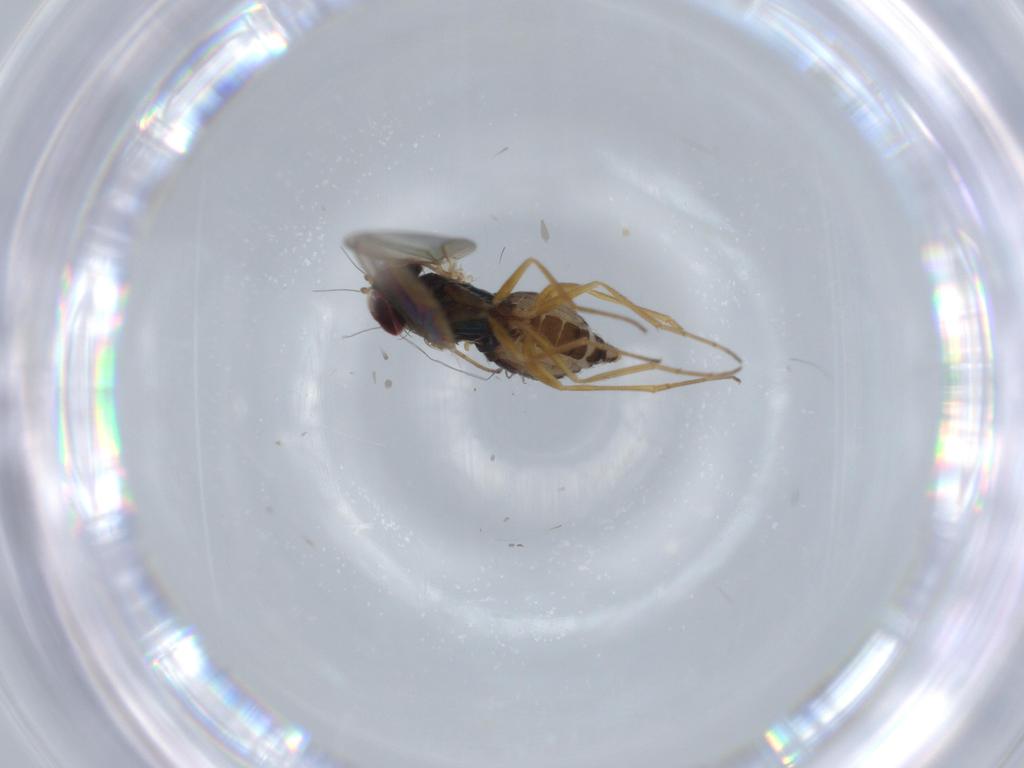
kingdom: Animalia
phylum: Arthropoda
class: Insecta
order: Diptera
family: Dolichopodidae
